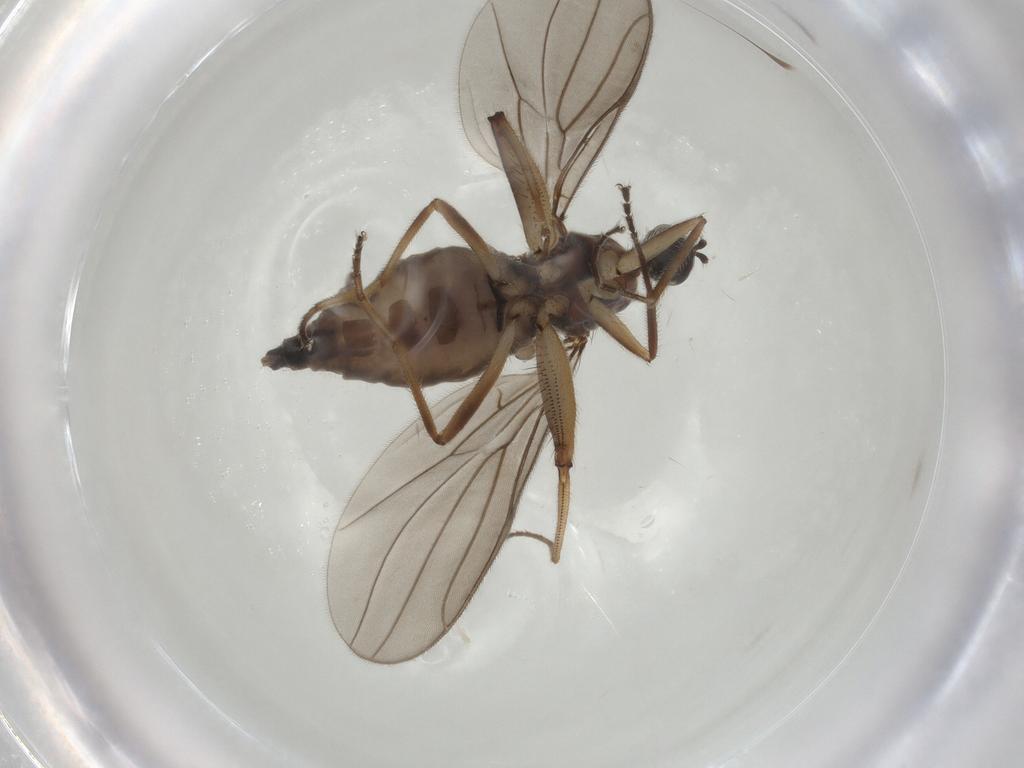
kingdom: Animalia
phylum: Arthropoda
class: Insecta
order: Diptera
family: Hybotidae
